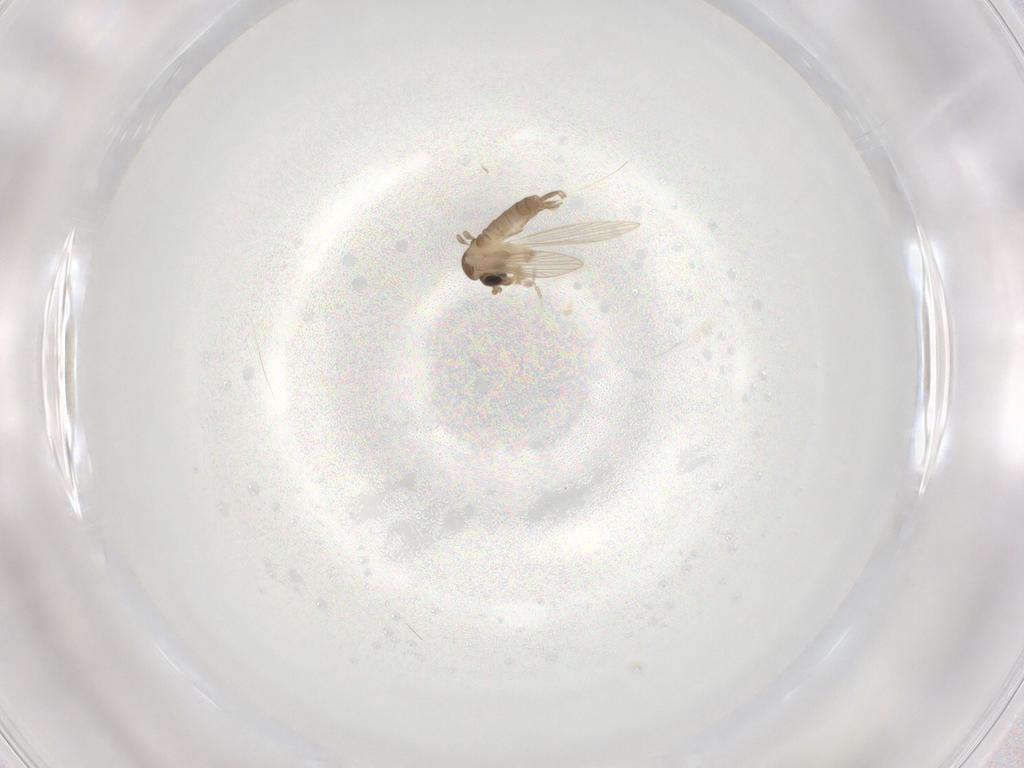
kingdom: Animalia
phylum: Arthropoda
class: Insecta
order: Diptera
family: Psychodidae
